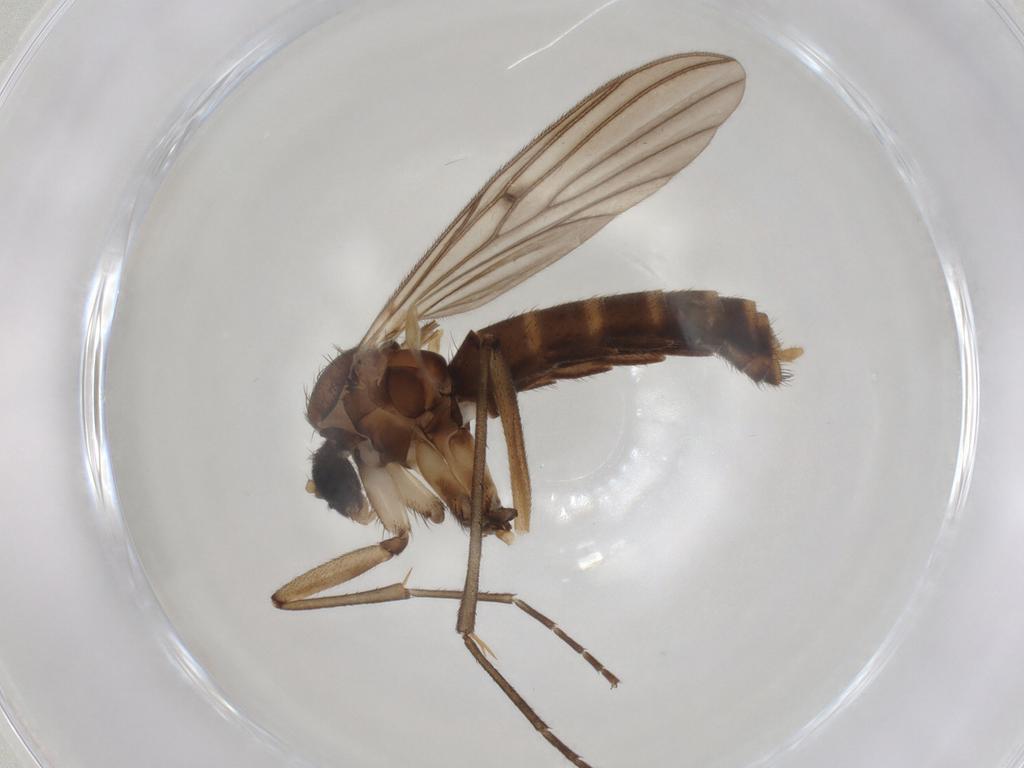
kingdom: Animalia
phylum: Arthropoda
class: Insecta
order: Diptera
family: Mycetophilidae
